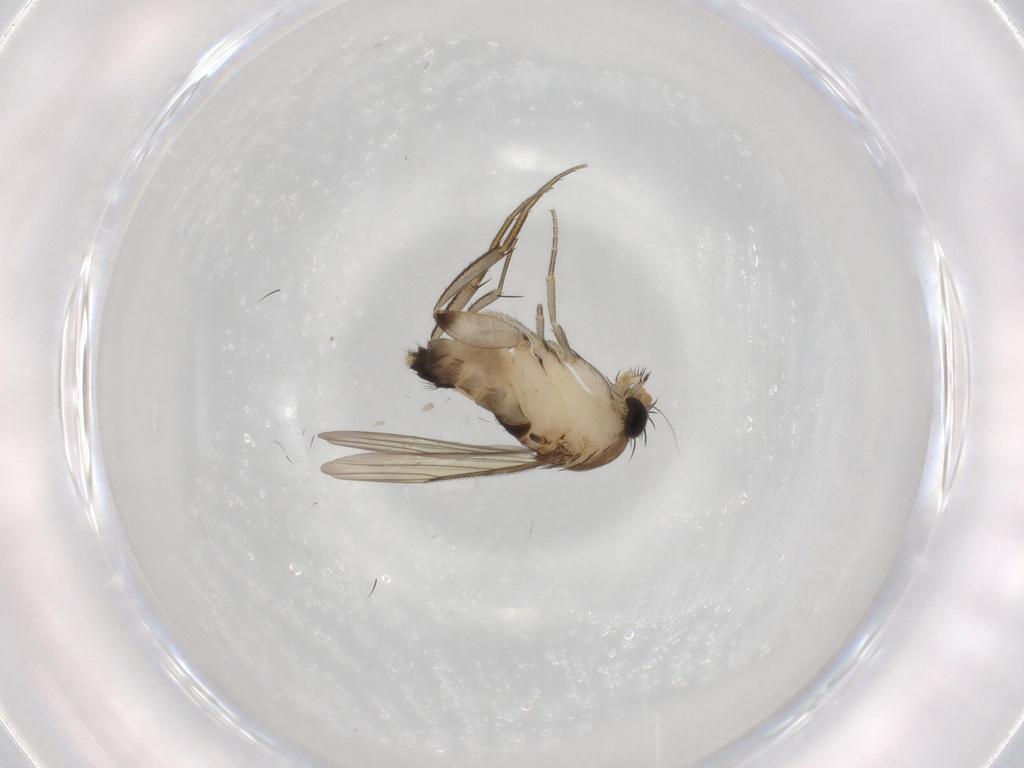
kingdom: Animalia
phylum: Arthropoda
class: Insecta
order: Diptera
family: Phoridae
